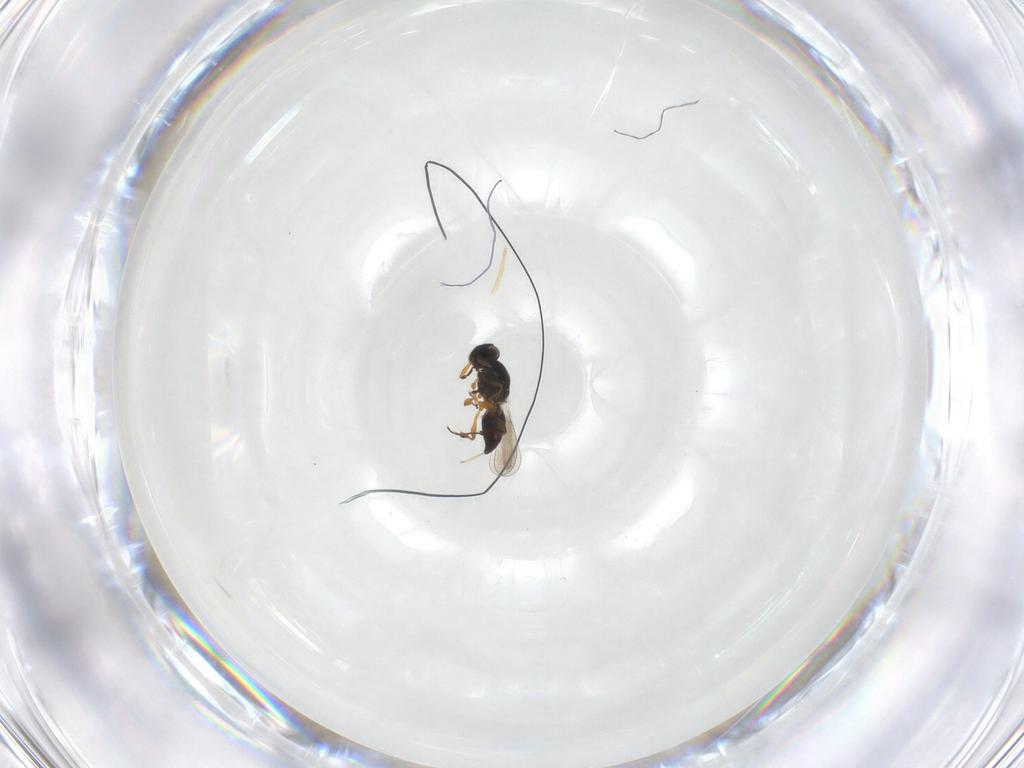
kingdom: Animalia
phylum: Arthropoda
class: Insecta
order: Hymenoptera
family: Platygastridae
